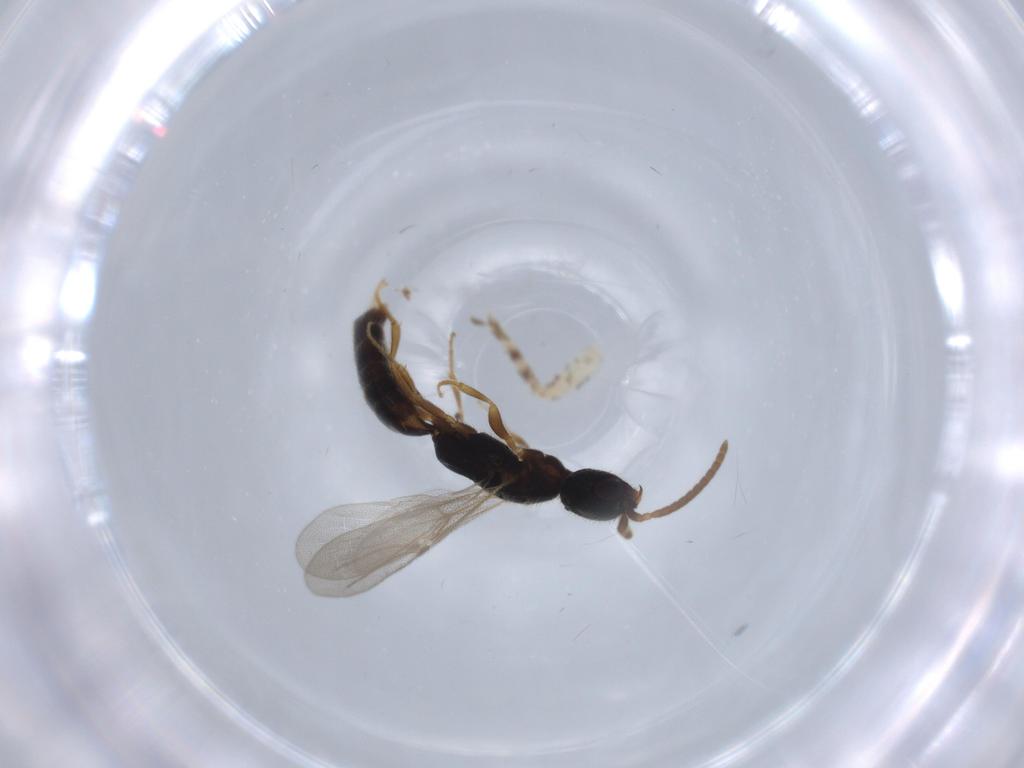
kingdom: Animalia
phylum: Arthropoda
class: Insecta
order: Hymenoptera
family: Bethylidae
